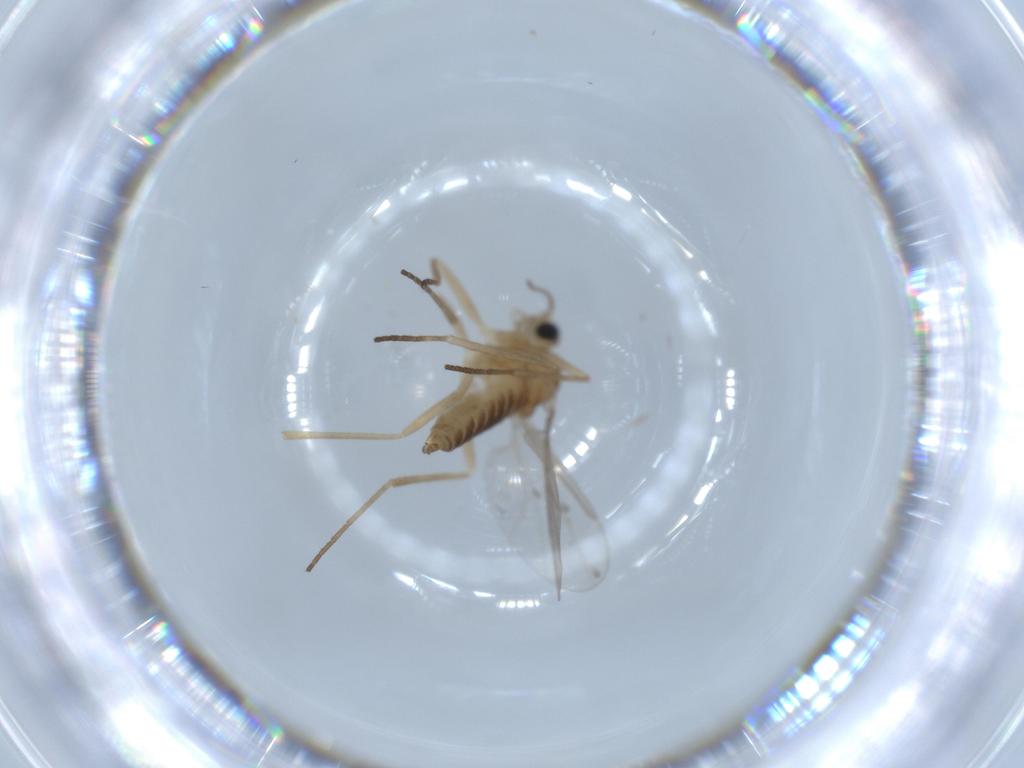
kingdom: Animalia
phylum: Arthropoda
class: Insecta
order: Diptera
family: Cecidomyiidae
